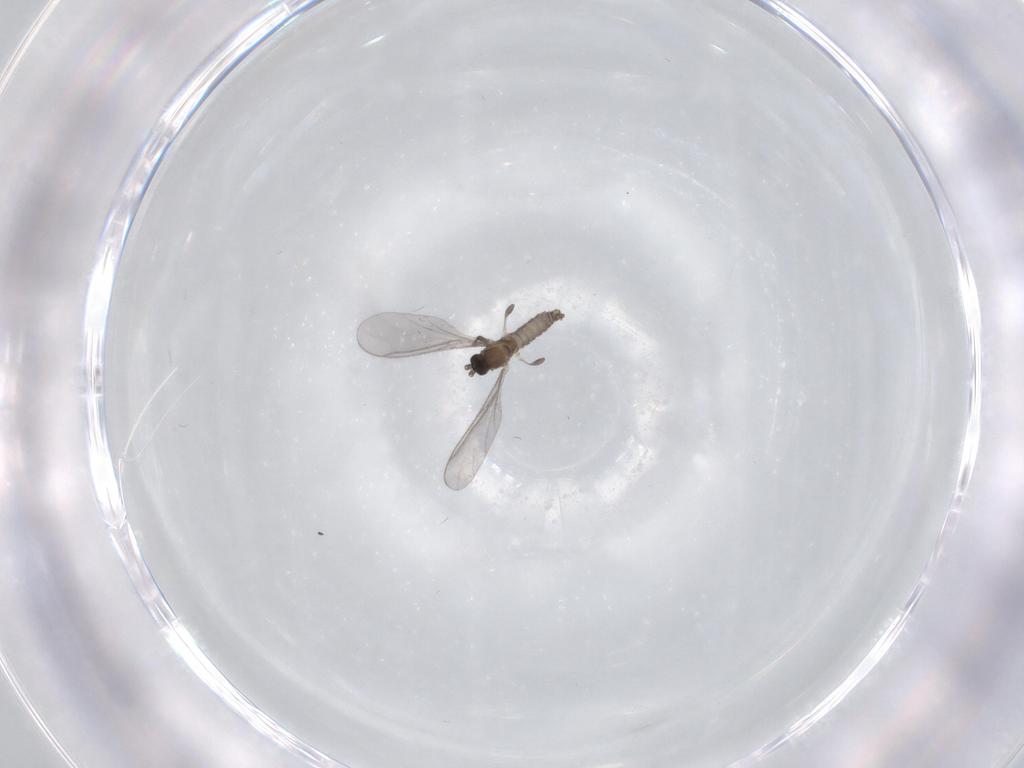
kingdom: Animalia
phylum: Arthropoda
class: Insecta
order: Diptera
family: Sciaridae
